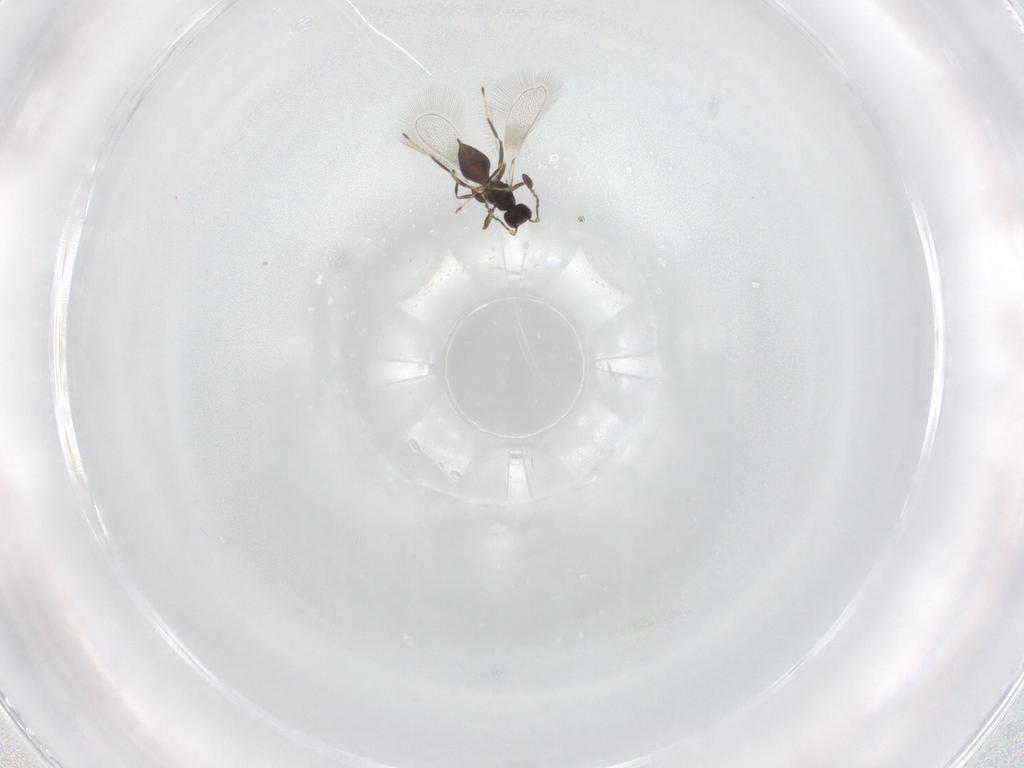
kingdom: Animalia
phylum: Arthropoda
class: Insecta
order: Hymenoptera
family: Mymaridae
